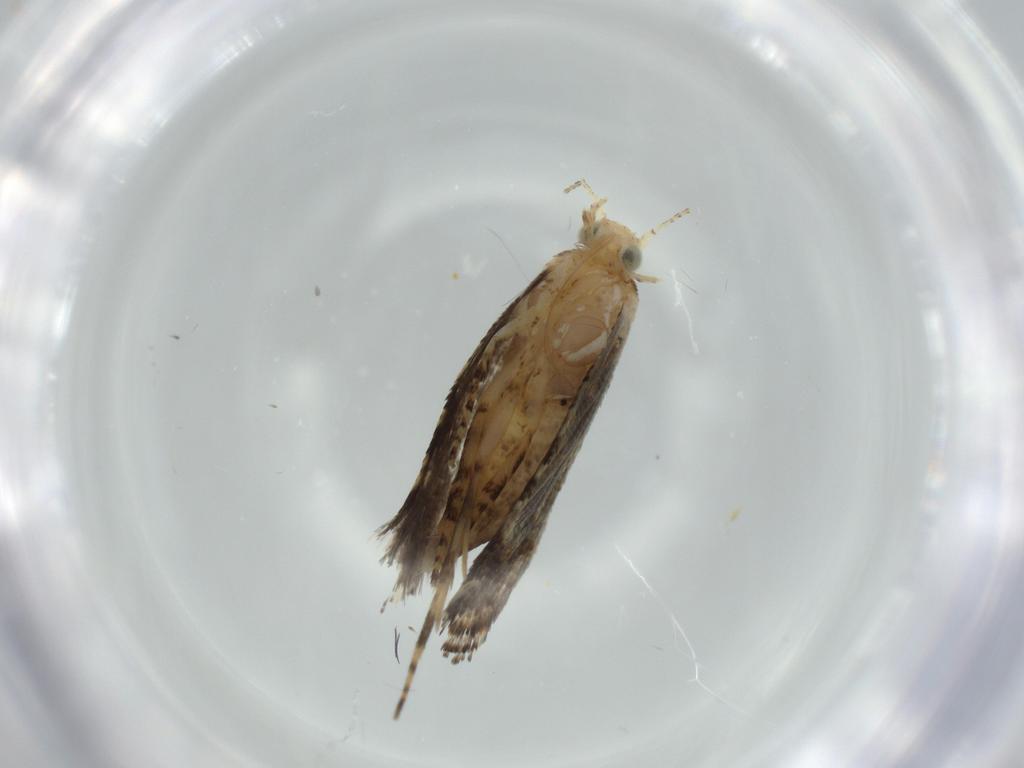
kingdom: Animalia
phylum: Arthropoda
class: Insecta
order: Lepidoptera
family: Glyphipterigidae
